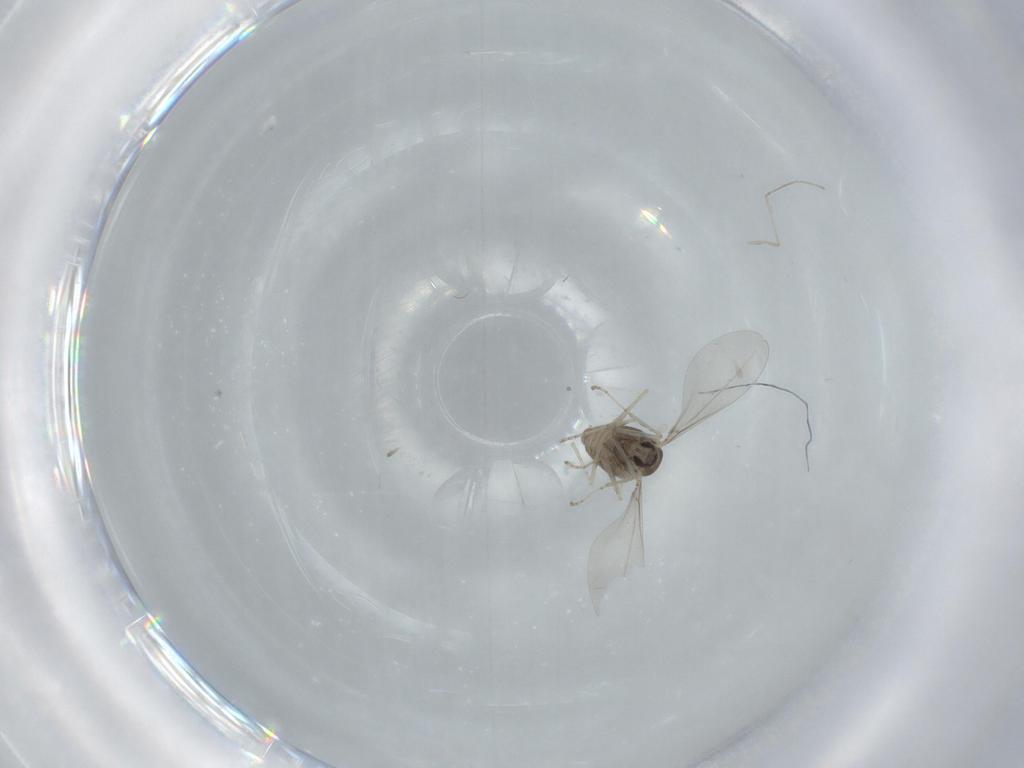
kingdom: Animalia
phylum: Arthropoda
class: Insecta
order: Diptera
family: Cecidomyiidae
